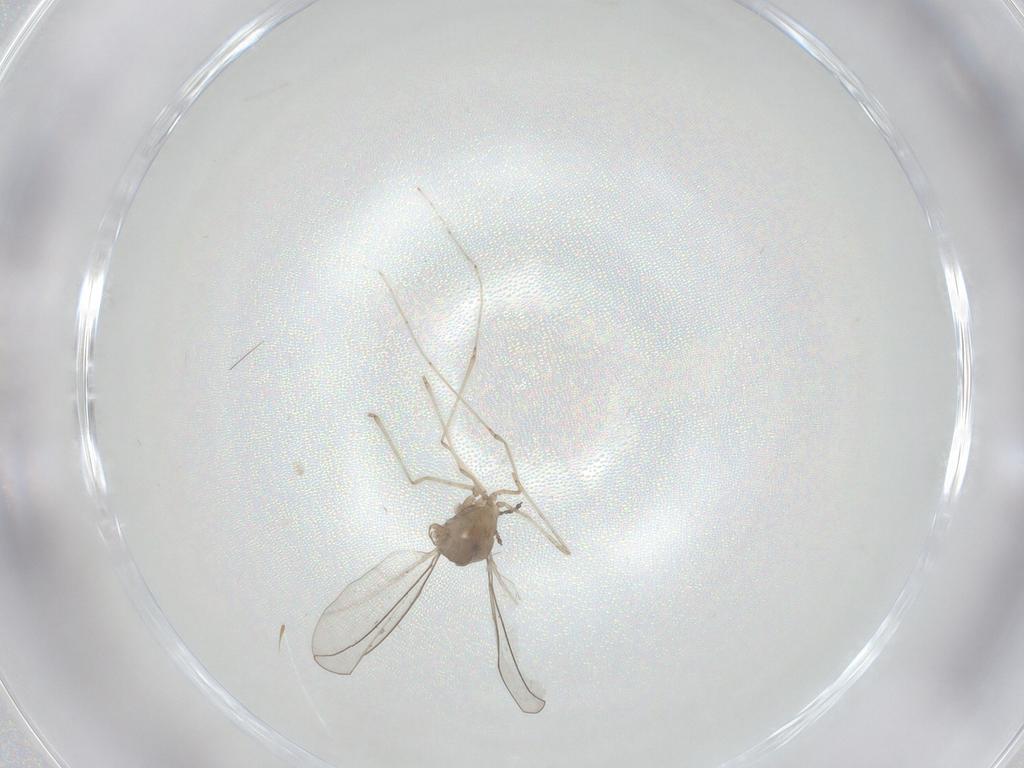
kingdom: Animalia
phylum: Arthropoda
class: Insecta
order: Diptera
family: Cecidomyiidae
